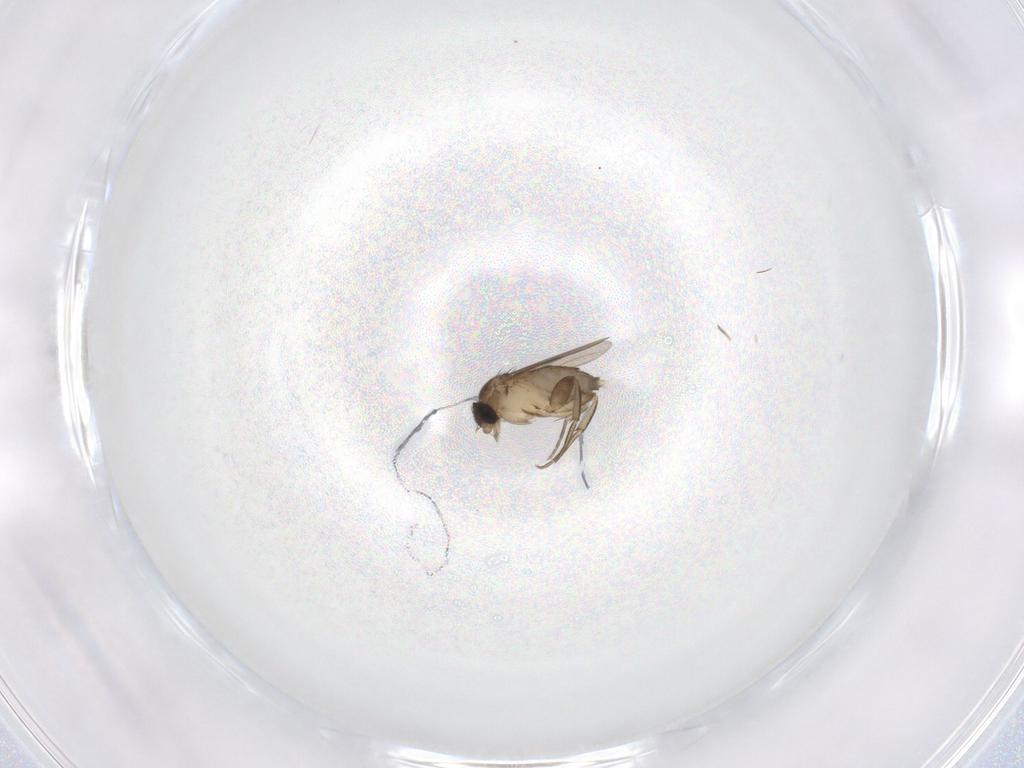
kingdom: Animalia
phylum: Arthropoda
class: Insecta
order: Diptera
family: Phoridae
